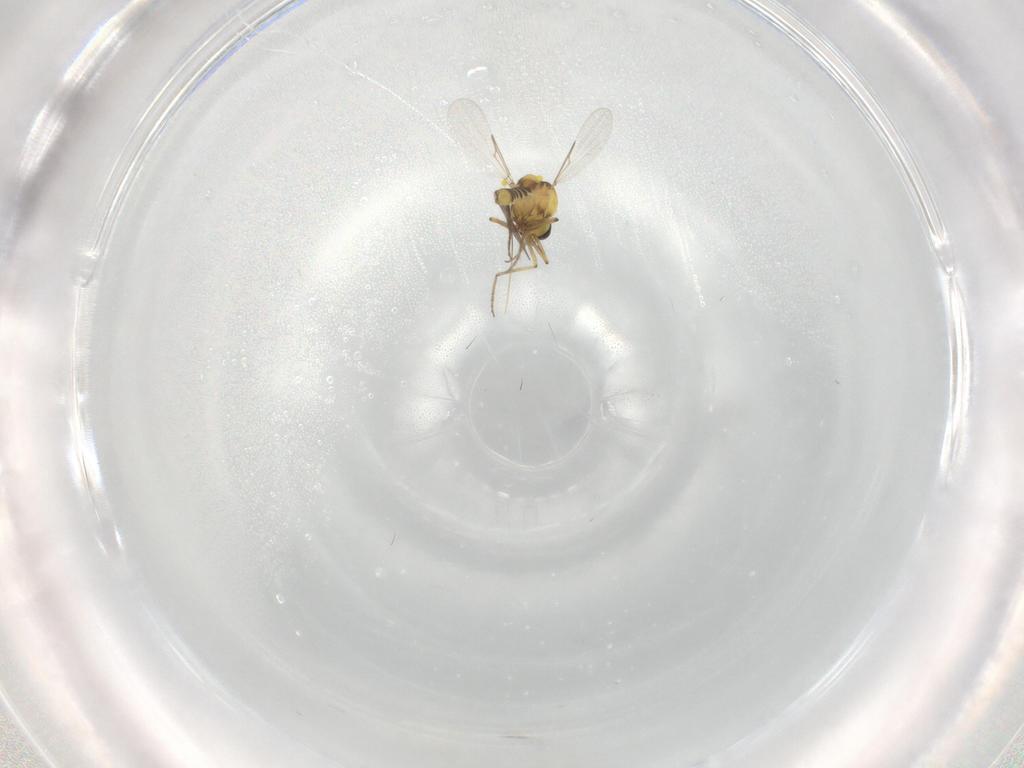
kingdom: Animalia
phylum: Arthropoda
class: Insecta
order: Diptera
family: Ceratopogonidae
